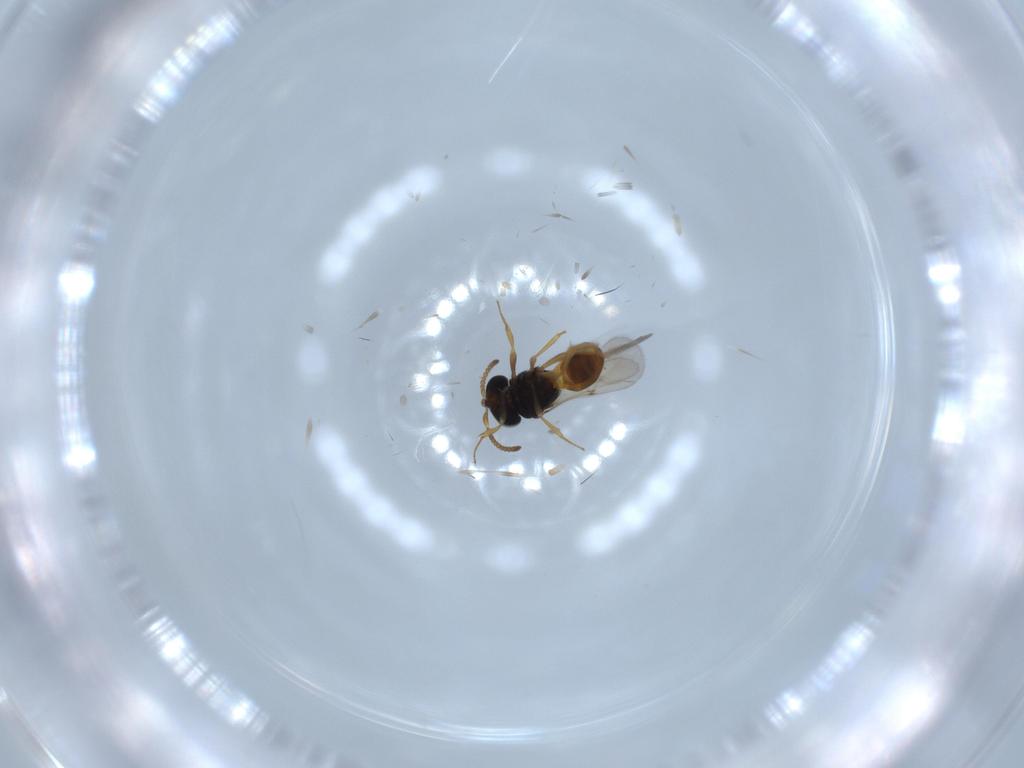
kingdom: Animalia
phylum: Arthropoda
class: Insecta
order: Hymenoptera
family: Scelionidae
